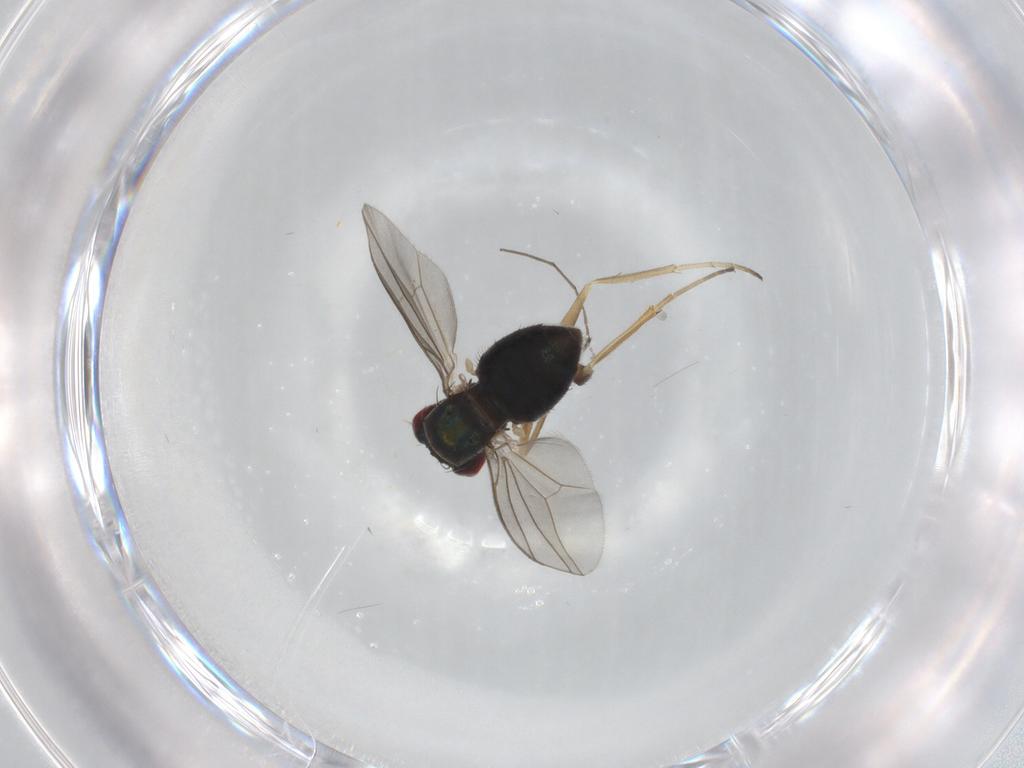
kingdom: Animalia
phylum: Arthropoda
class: Insecta
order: Diptera
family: Dolichopodidae
